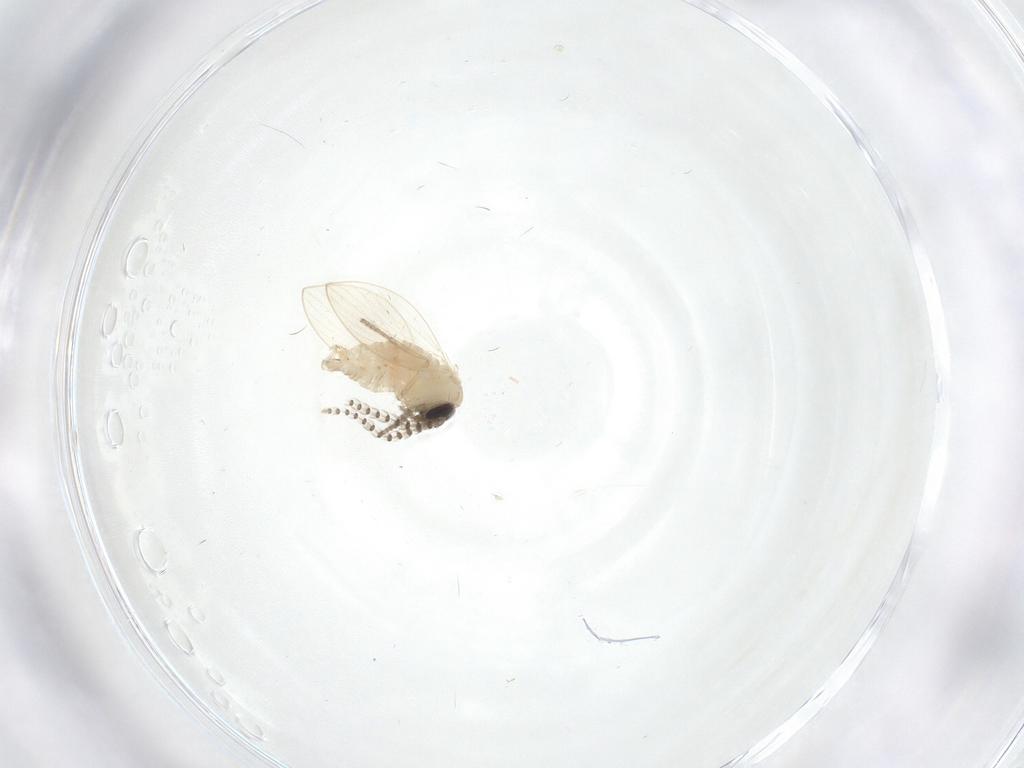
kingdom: Animalia
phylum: Arthropoda
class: Insecta
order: Diptera
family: Psychodidae
